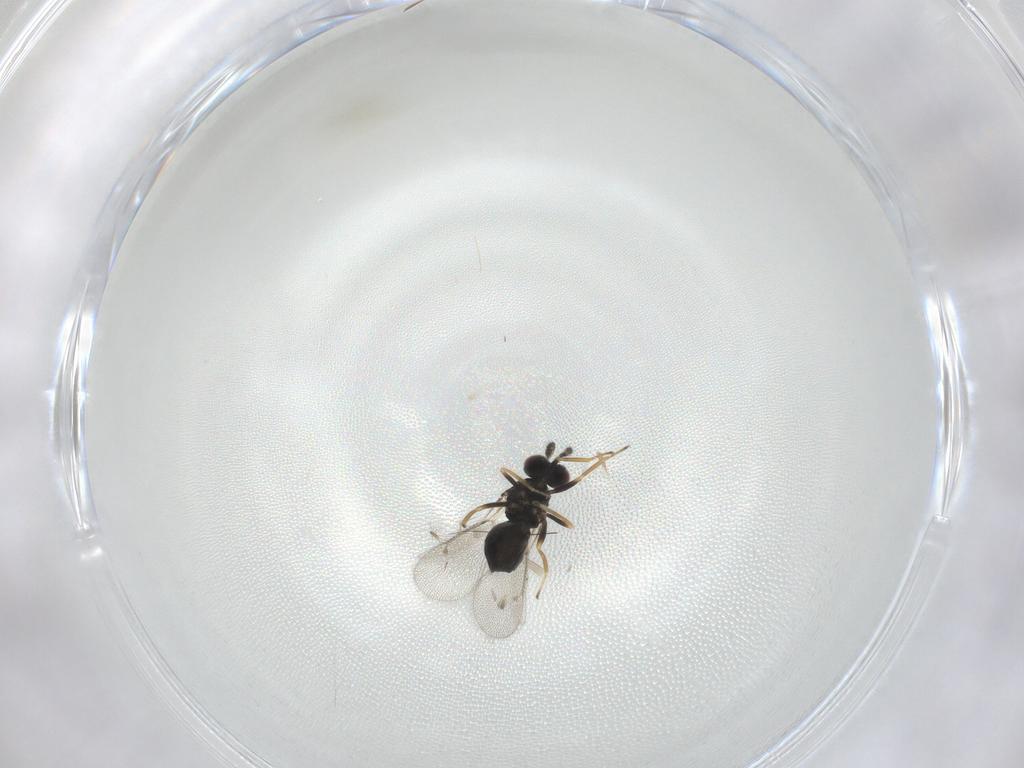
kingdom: Animalia
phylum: Arthropoda
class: Insecta
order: Hymenoptera
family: Eulophidae
